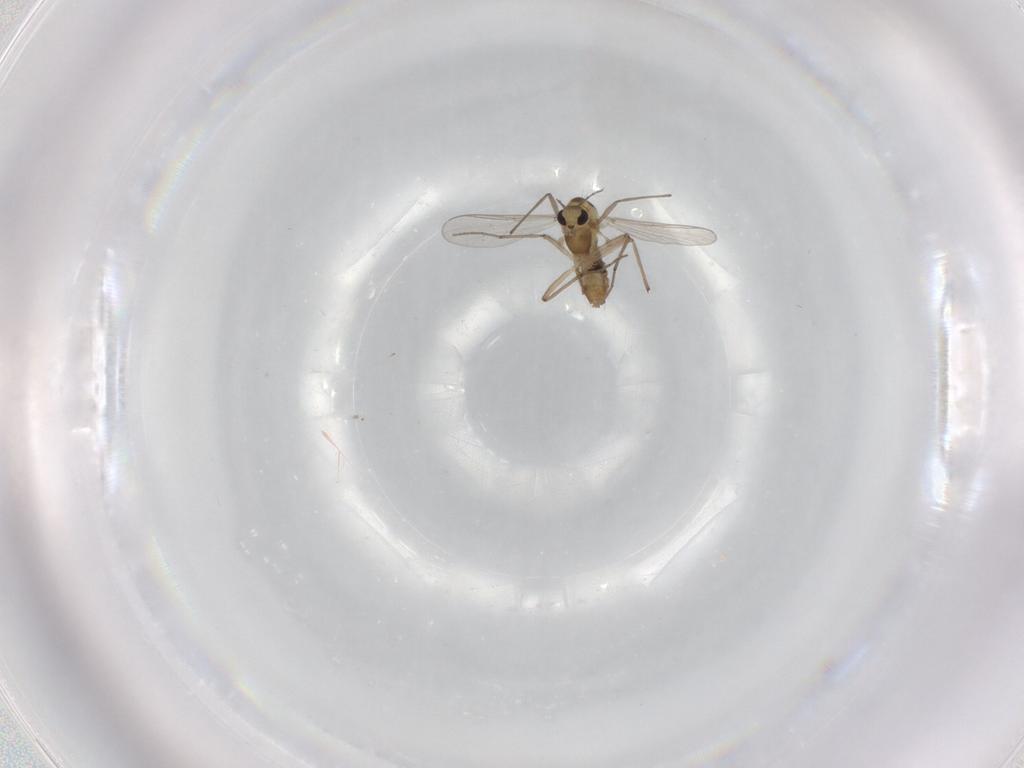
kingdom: Animalia
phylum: Arthropoda
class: Insecta
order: Diptera
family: Chironomidae
